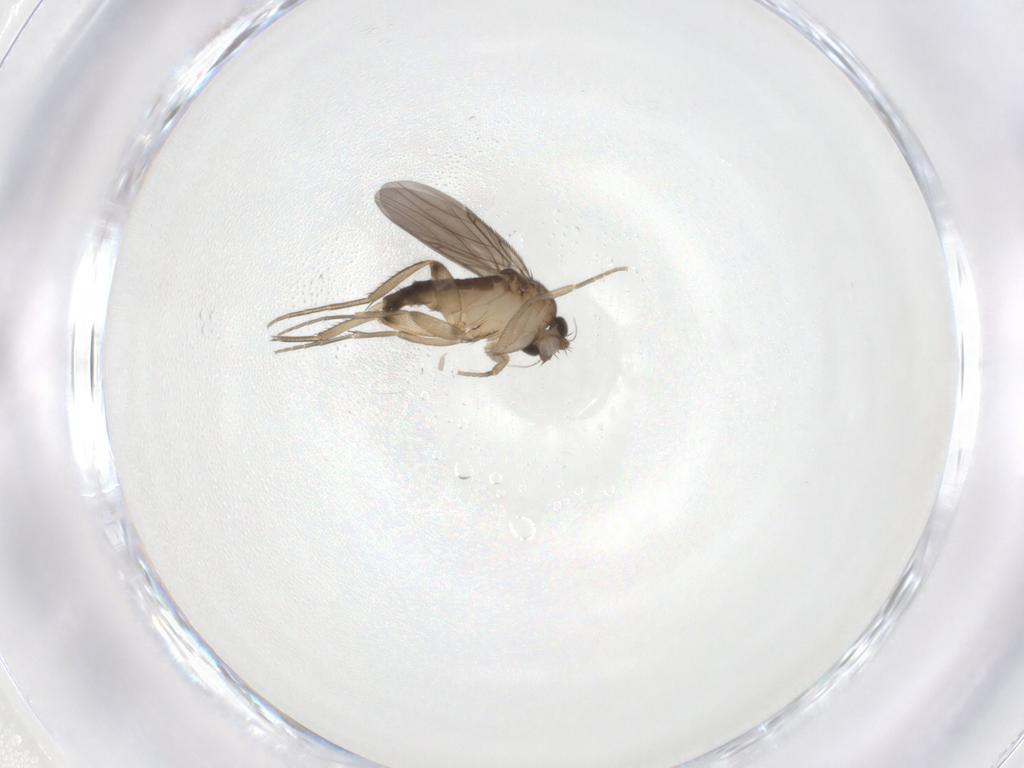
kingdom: Animalia
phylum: Arthropoda
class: Insecta
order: Diptera
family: Phoridae
